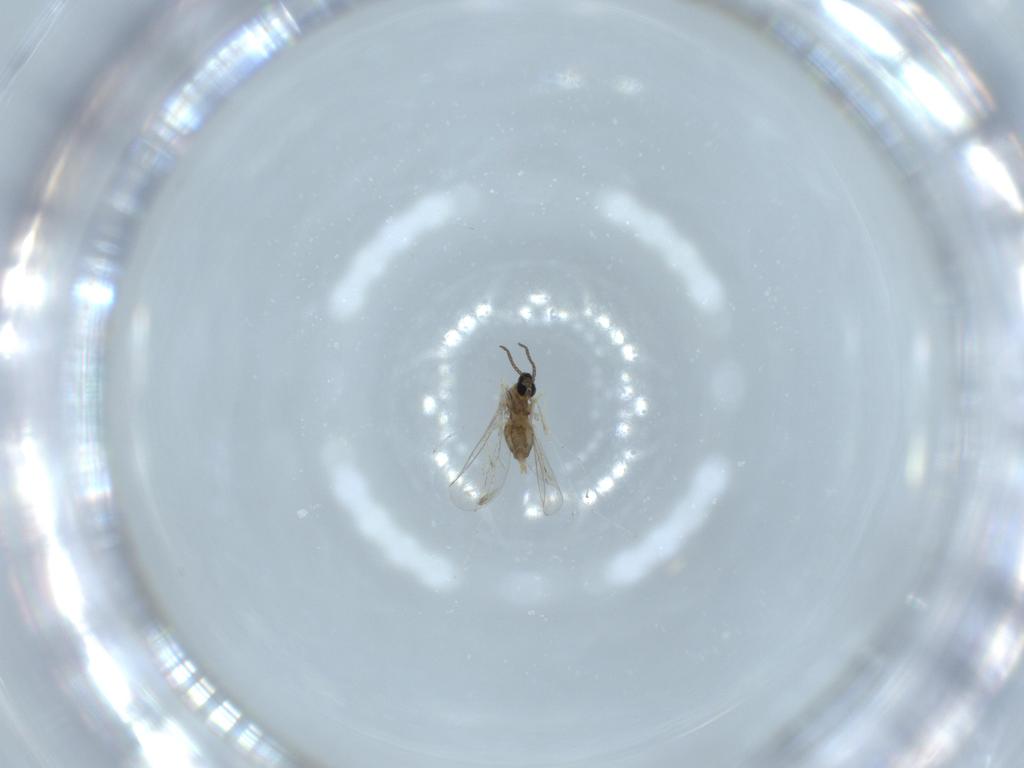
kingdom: Animalia
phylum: Arthropoda
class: Insecta
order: Diptera
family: Cecidomyiidae
